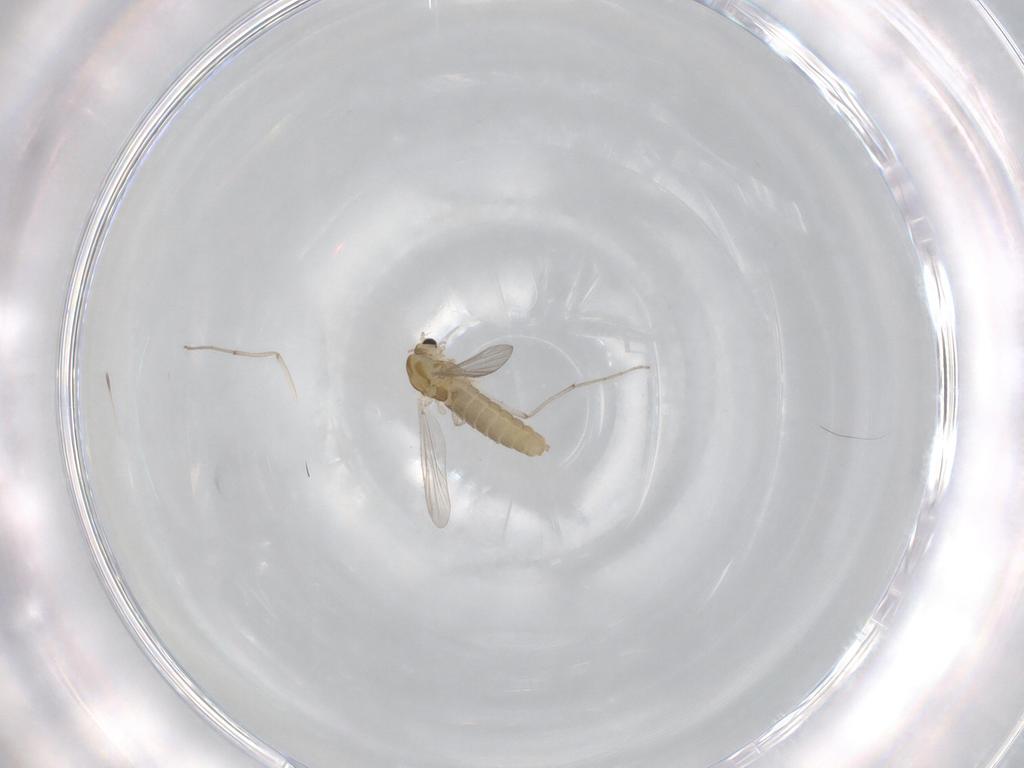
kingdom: Animalia
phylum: Arthropoda
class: Insecta
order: Diptera
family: Chironomidae
